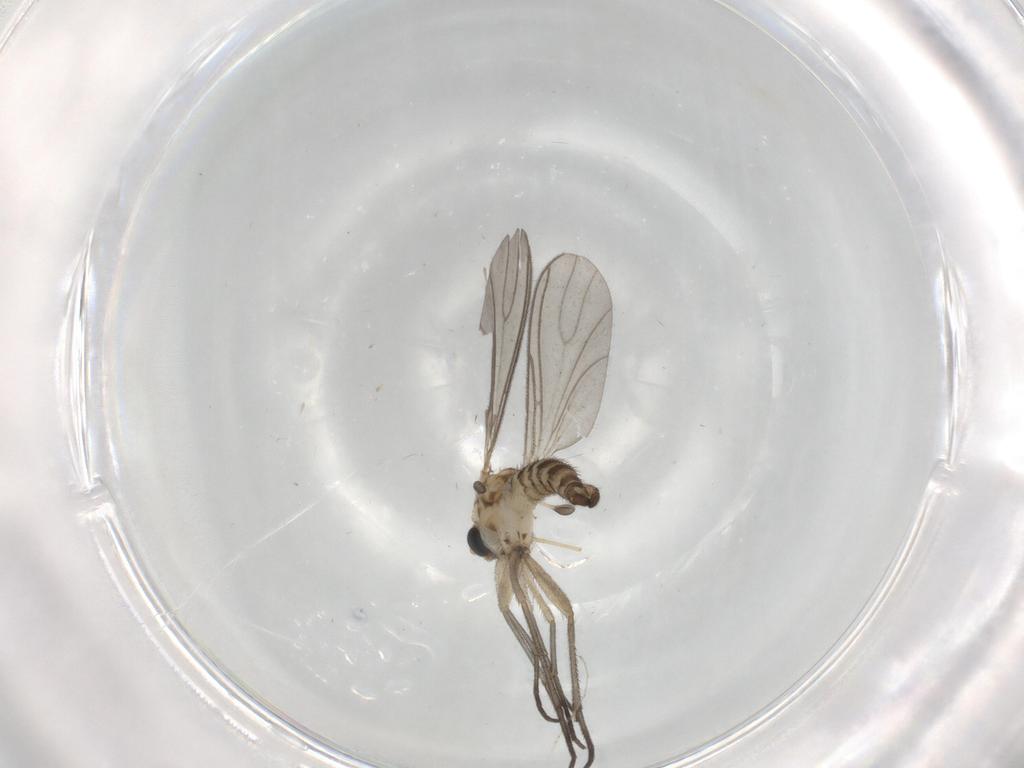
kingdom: Animalia
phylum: Arthropoda
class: Insecta
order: Diptera
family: Sciaridae
